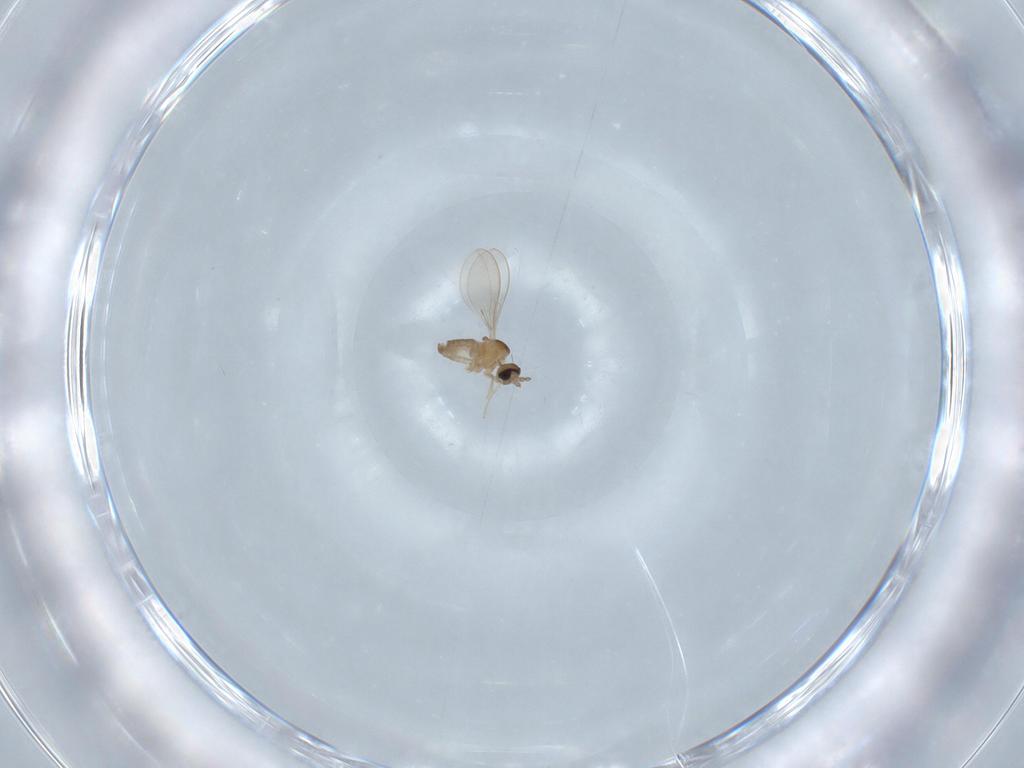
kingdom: Animalia
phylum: Arthropoda
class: Insecta
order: Diptera
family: Cecidomyiidae
